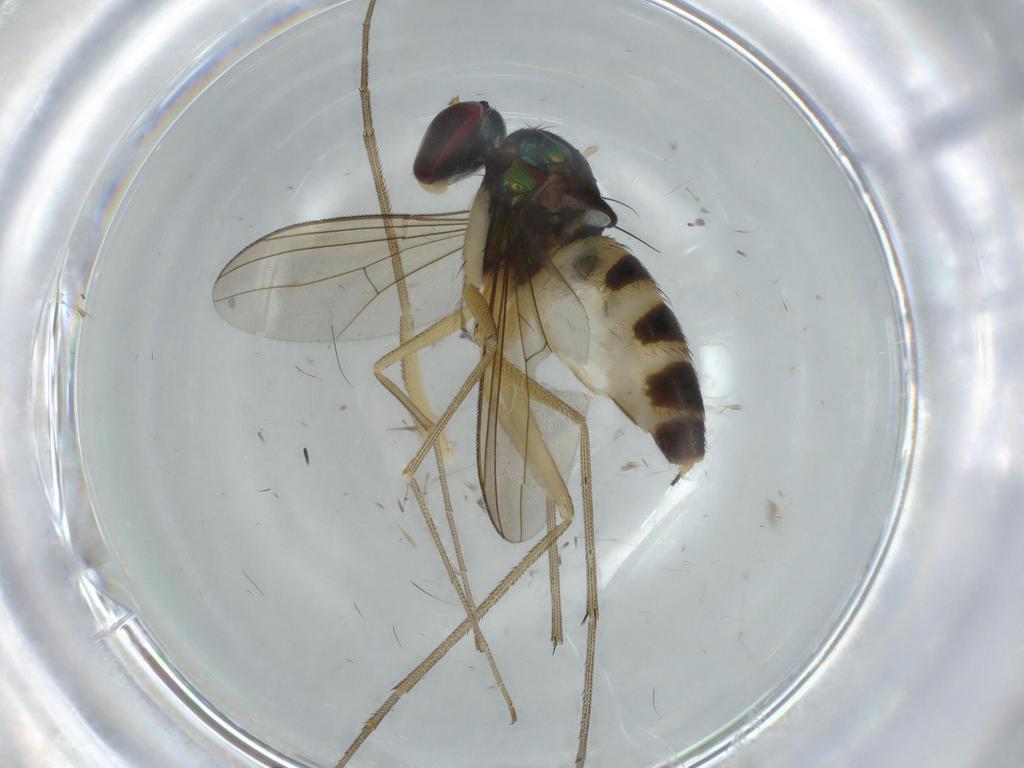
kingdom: Animalia
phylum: Arthropoda
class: Insecta
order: Diptera
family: Dolichopodidae
